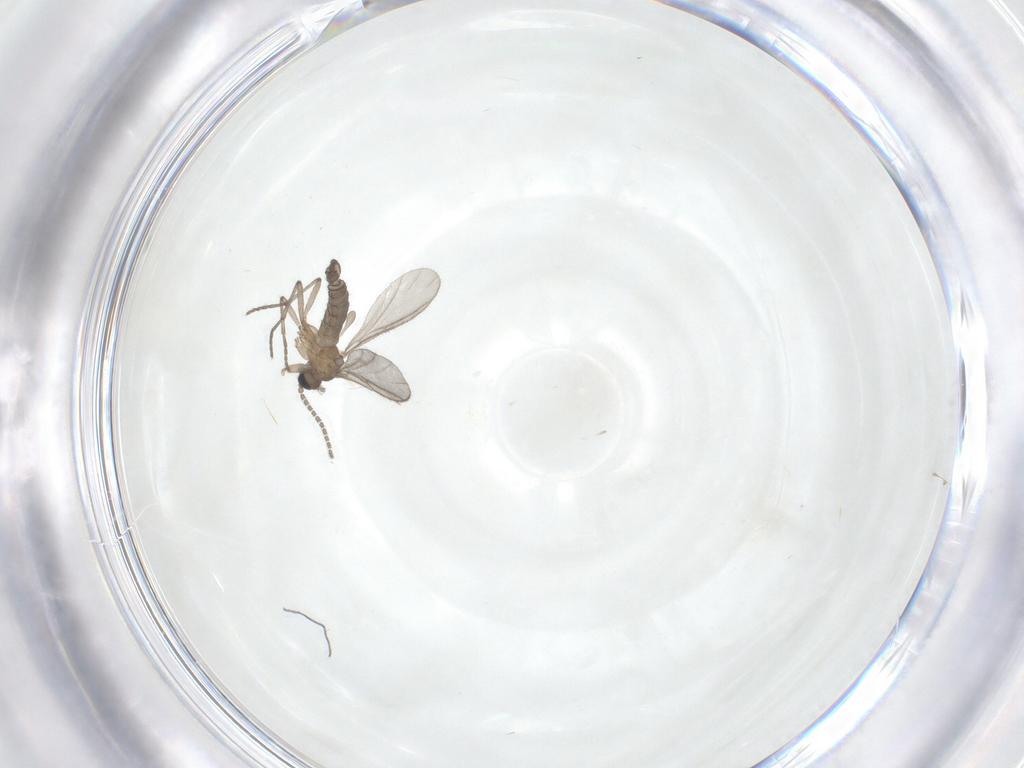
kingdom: Animalia
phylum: Arthropoda
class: Insecta
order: Diptera
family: Sciaridae
